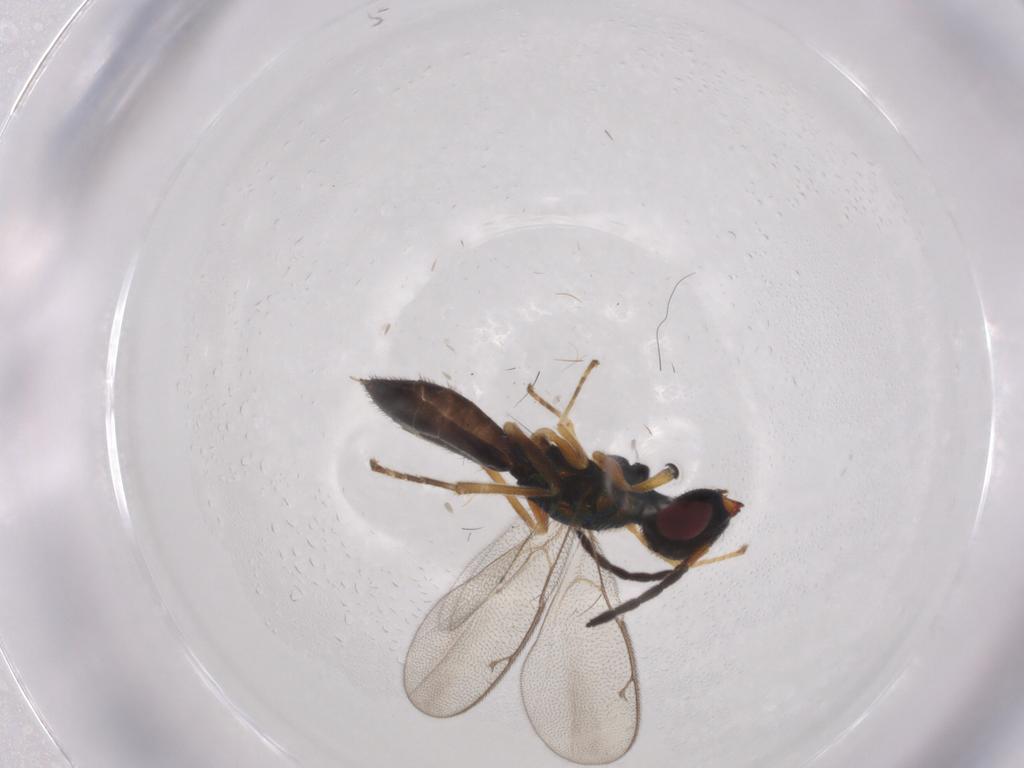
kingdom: Animalia
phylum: Arthropoda
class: Insecta
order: Hymenoptera
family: Pteromalidae
